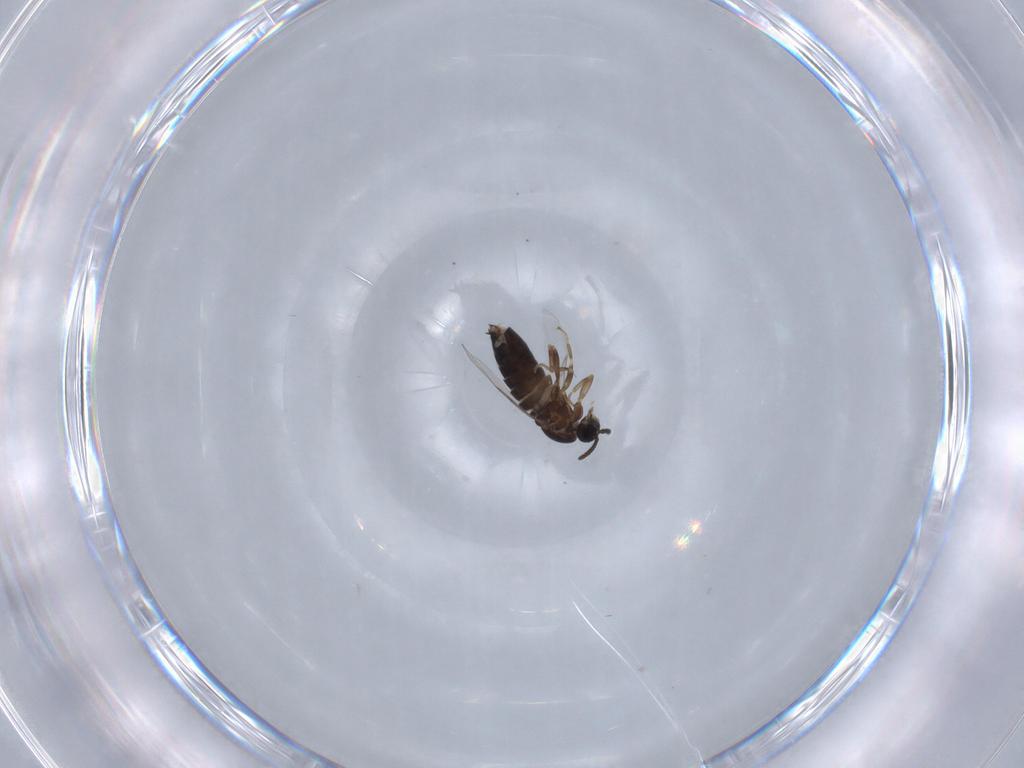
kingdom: Animalia
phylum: Arthropoda
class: Insecta
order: Diptera
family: Scatopsidae
